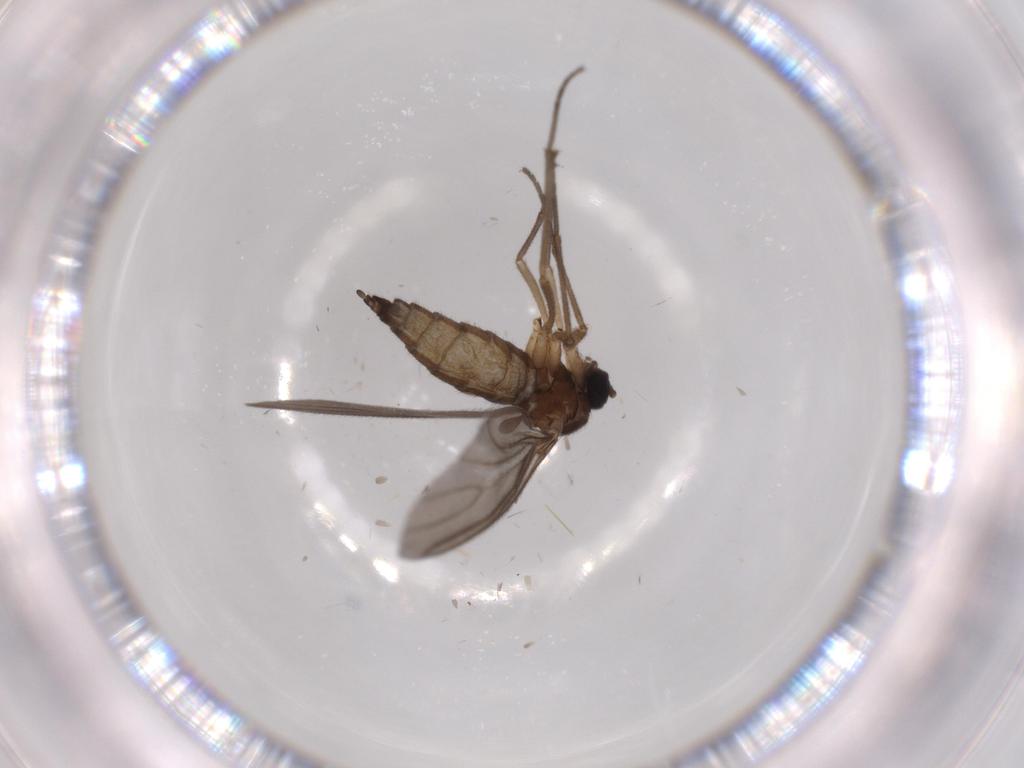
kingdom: Animalia
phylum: Arthropoda
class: Insecta
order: Diptera
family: Sciaridae
